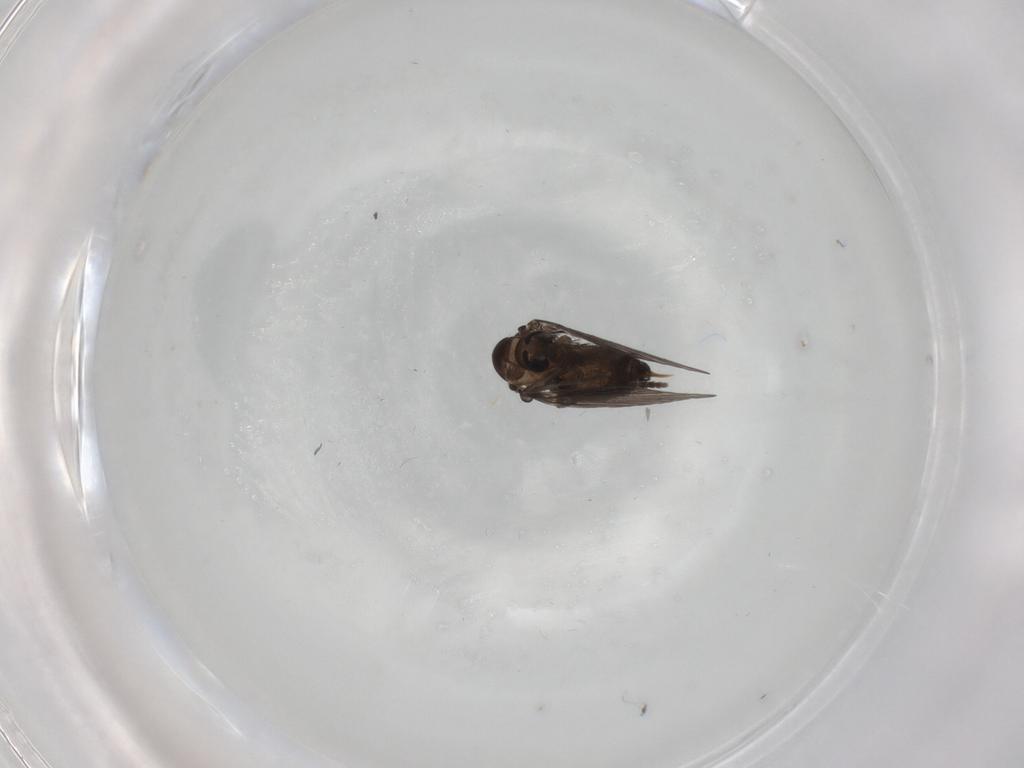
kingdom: Animalia
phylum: Arthropoda
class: Insecta
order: Diptera
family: Psychodidae
